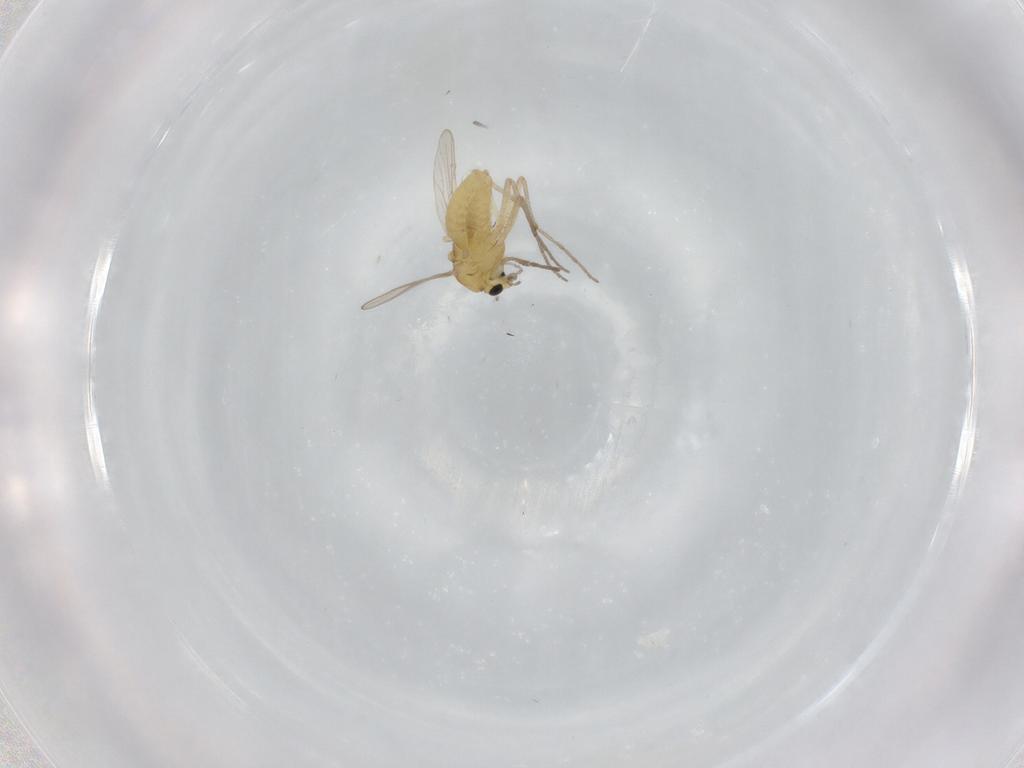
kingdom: Animalia
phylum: Arthropoda
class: Insecta
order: Diptera
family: Chironomidae
